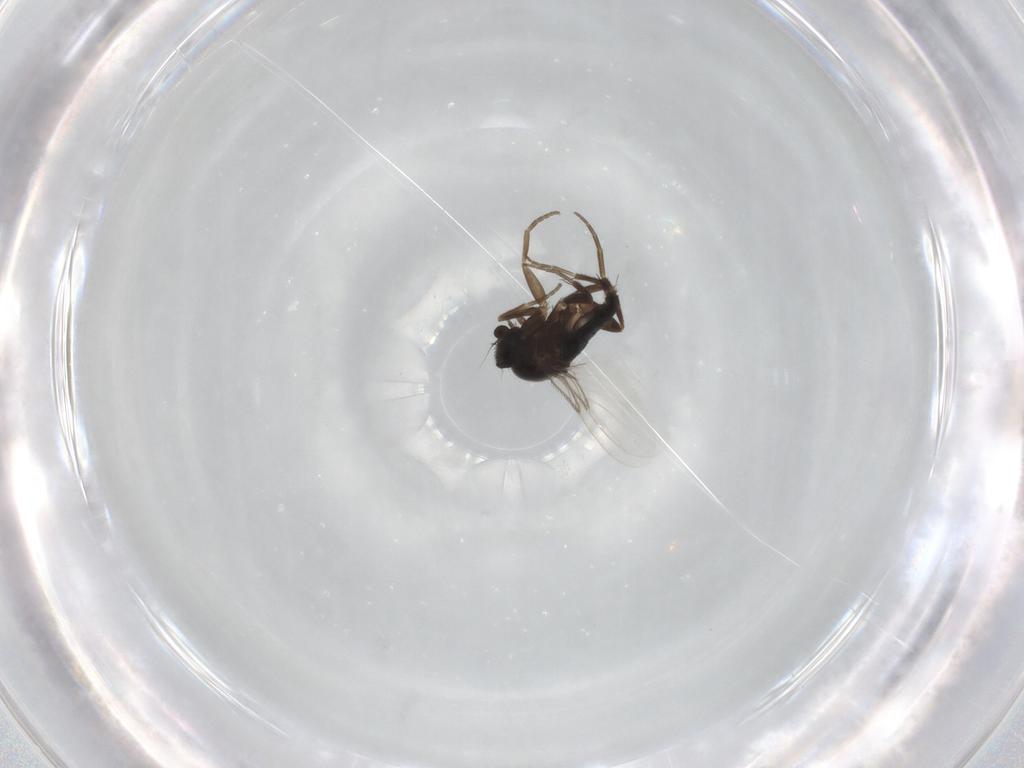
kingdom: Animalia
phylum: Arthropoda
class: Insecta
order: Diptera
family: Phoridae
